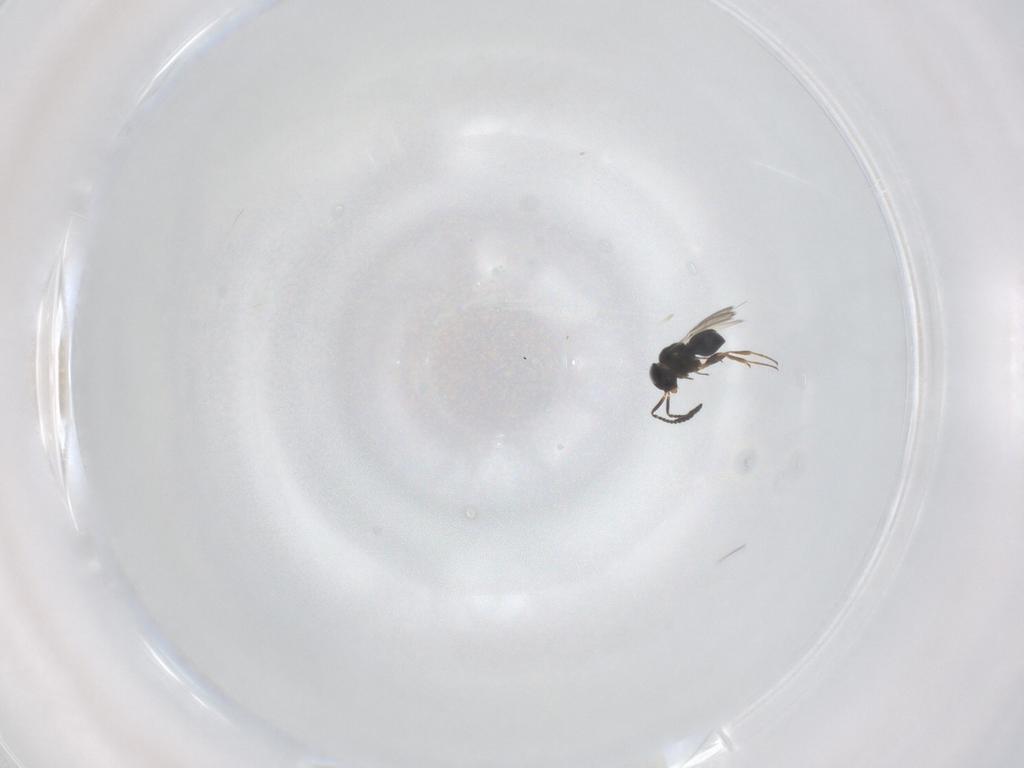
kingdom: Animalia
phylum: Arthropoda
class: Insecta
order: Hymenoptera
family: Scelionidae
